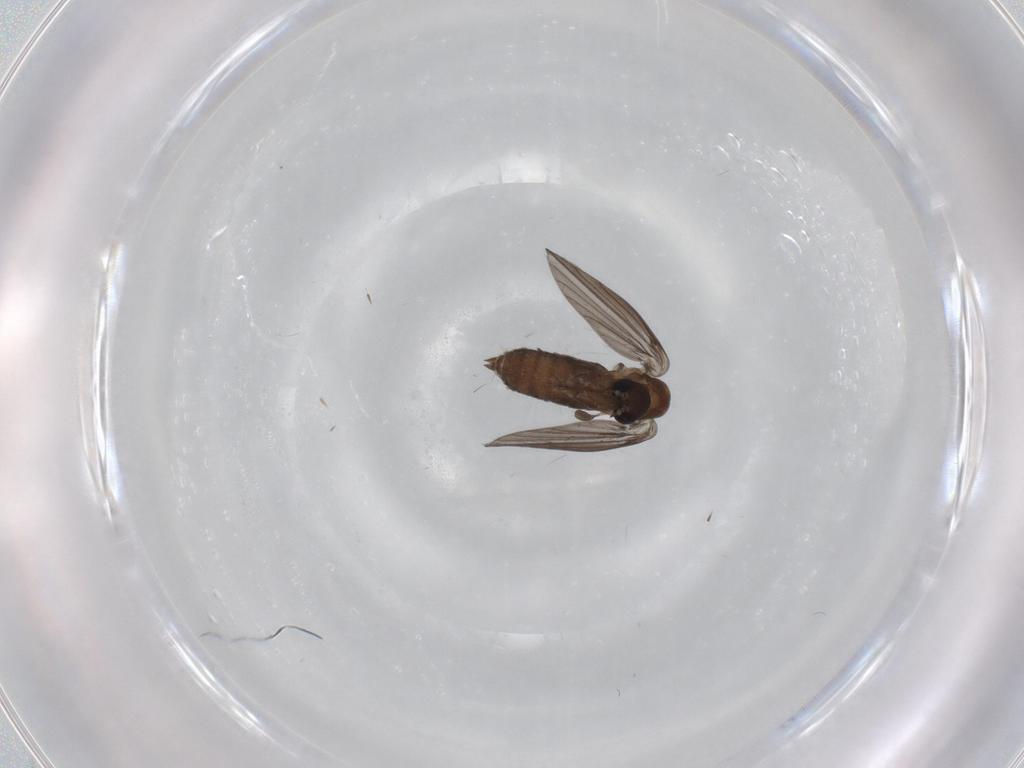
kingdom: Animalia
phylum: Arthropoda
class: Insecta
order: Diptera
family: Psychodidae
